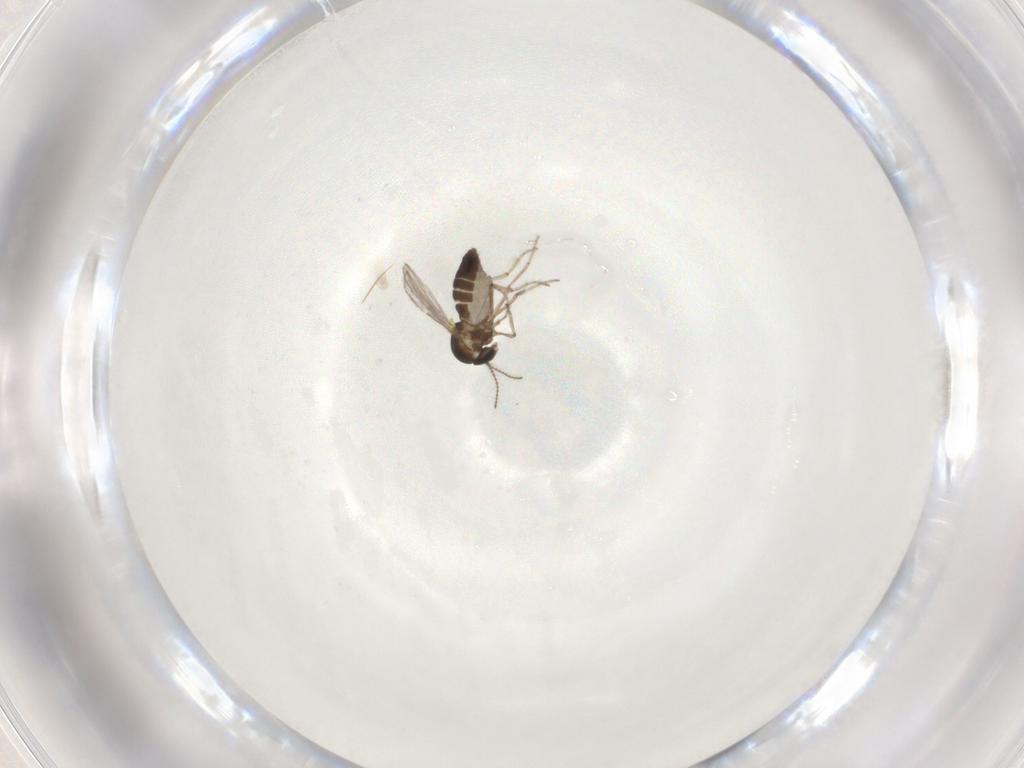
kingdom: Animalia
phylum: Arthropoda
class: Insecta
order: Diptera
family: Ceratopogonidae
